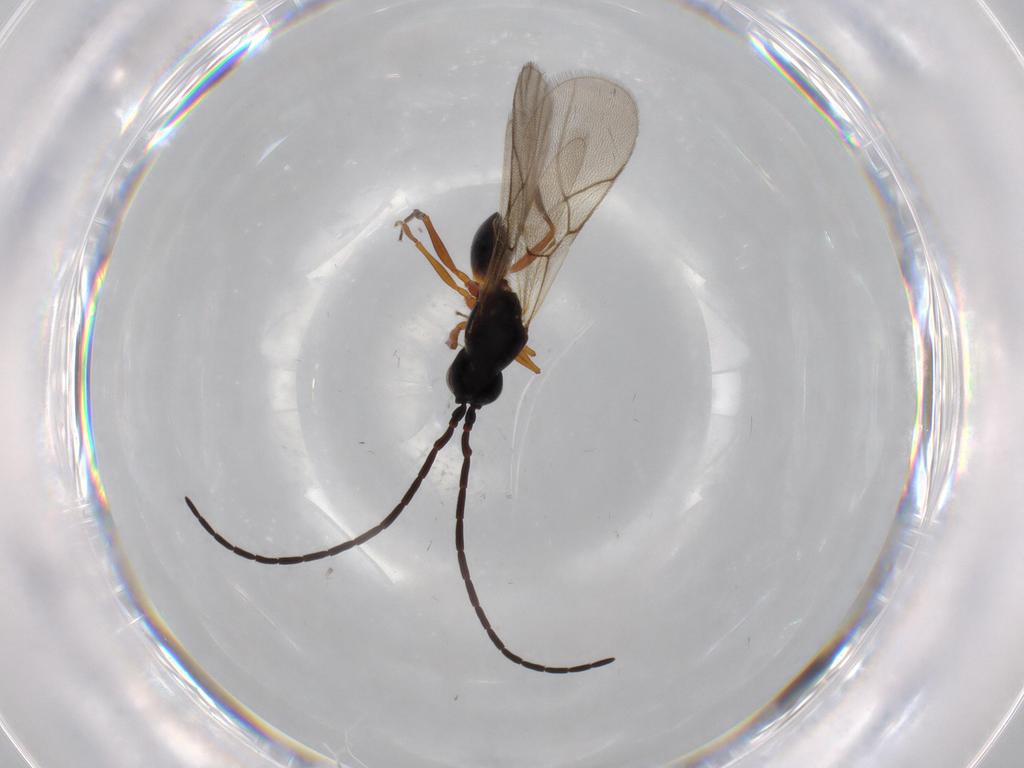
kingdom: Animalia
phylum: Arthropoda
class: Insecta
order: Hymenoptera
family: Figitidae
